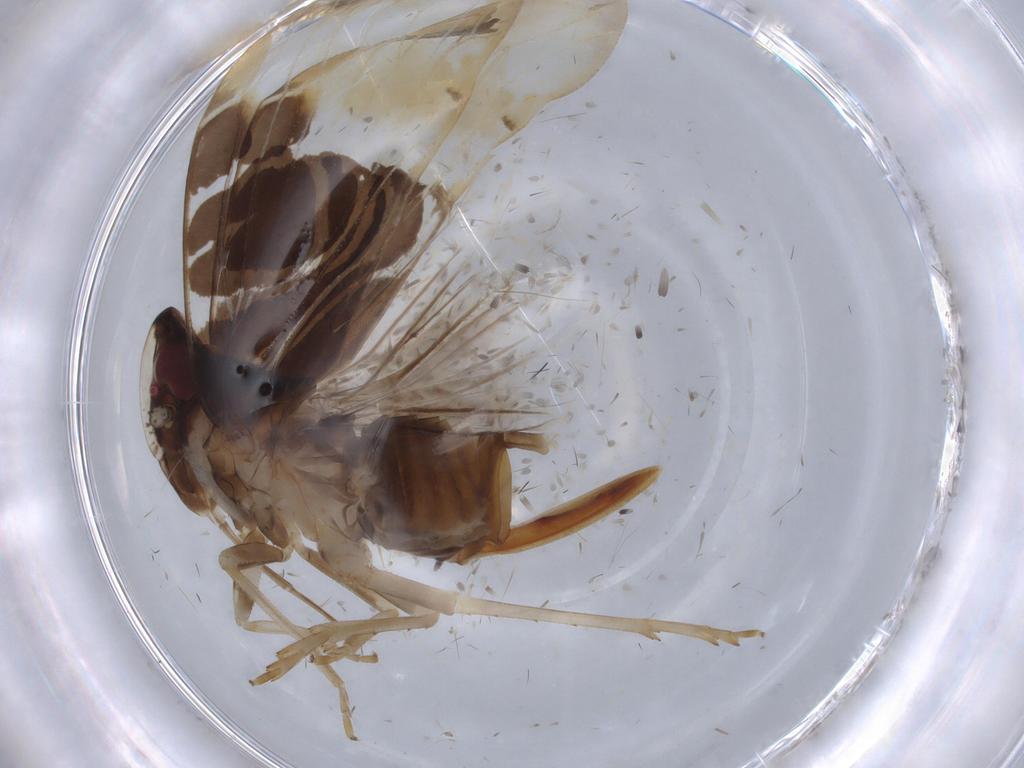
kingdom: Animalia
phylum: Arthropoda
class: Insecta
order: Hemiptera
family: Cixiidae
